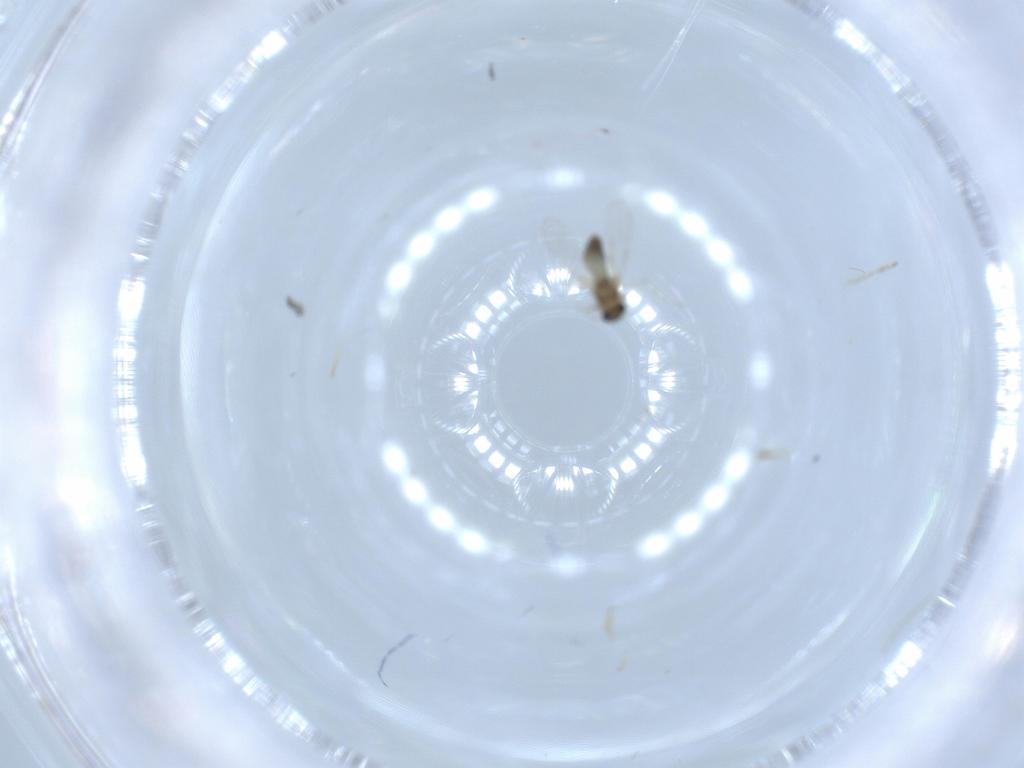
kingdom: Animalia
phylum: Arthropoda
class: Insecta
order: Diptera
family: Chironomidae
